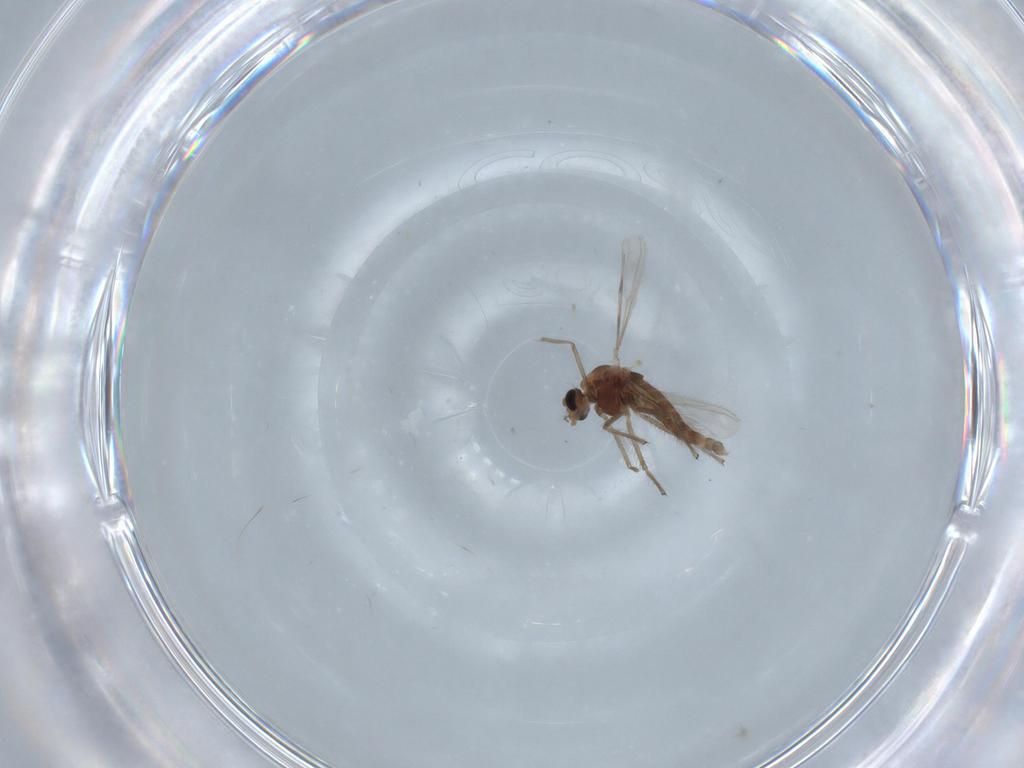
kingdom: Animalia
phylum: Arthropoda
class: Insecta
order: Diptera
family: Chironomidae
